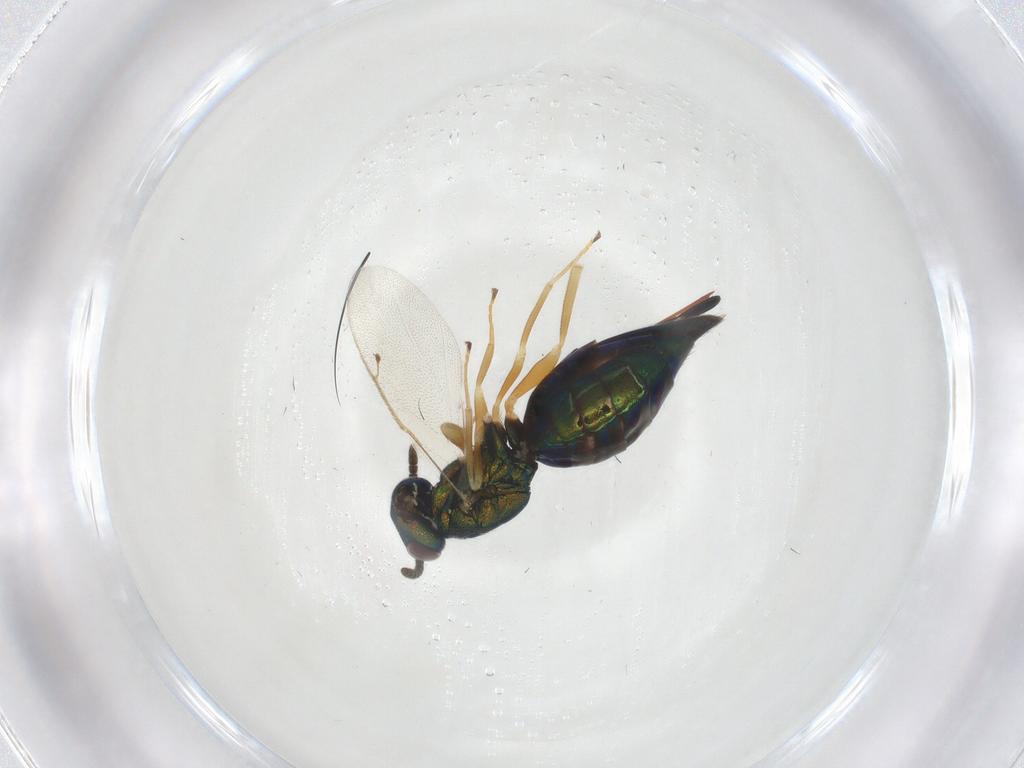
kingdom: Animalia
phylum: Arthropoda
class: Insecta
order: Hymenoptera
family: Pteromalidae
